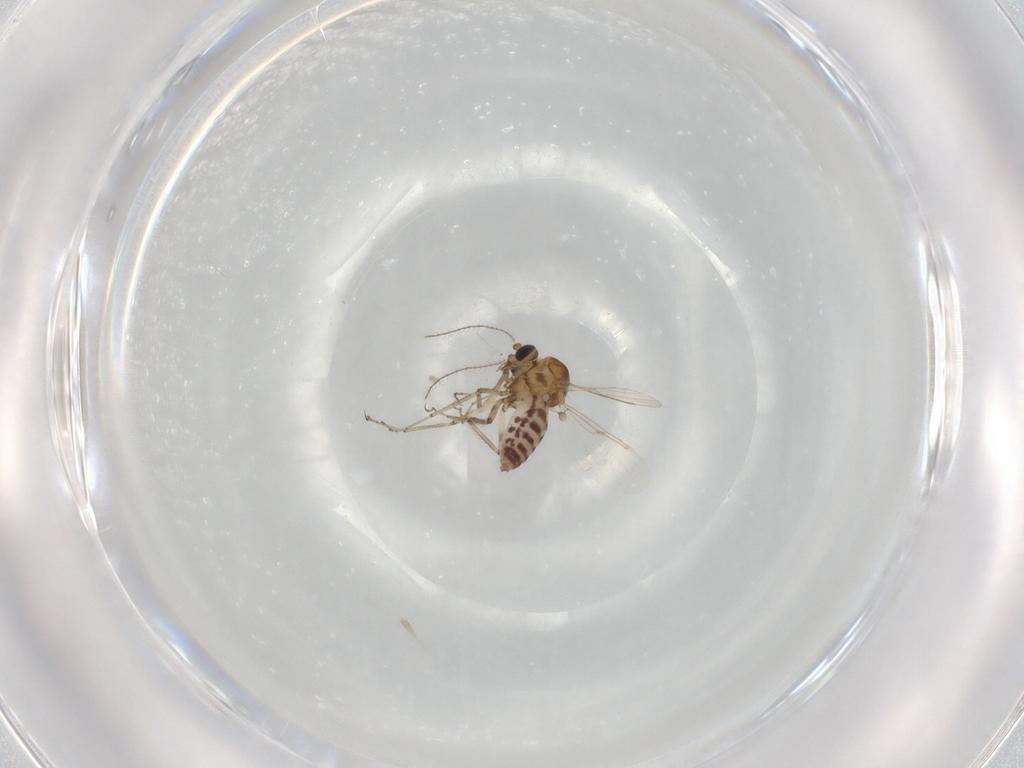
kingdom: Animalia
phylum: Arthropoda
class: Insecta
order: Diptera
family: Ceratopogonidae
